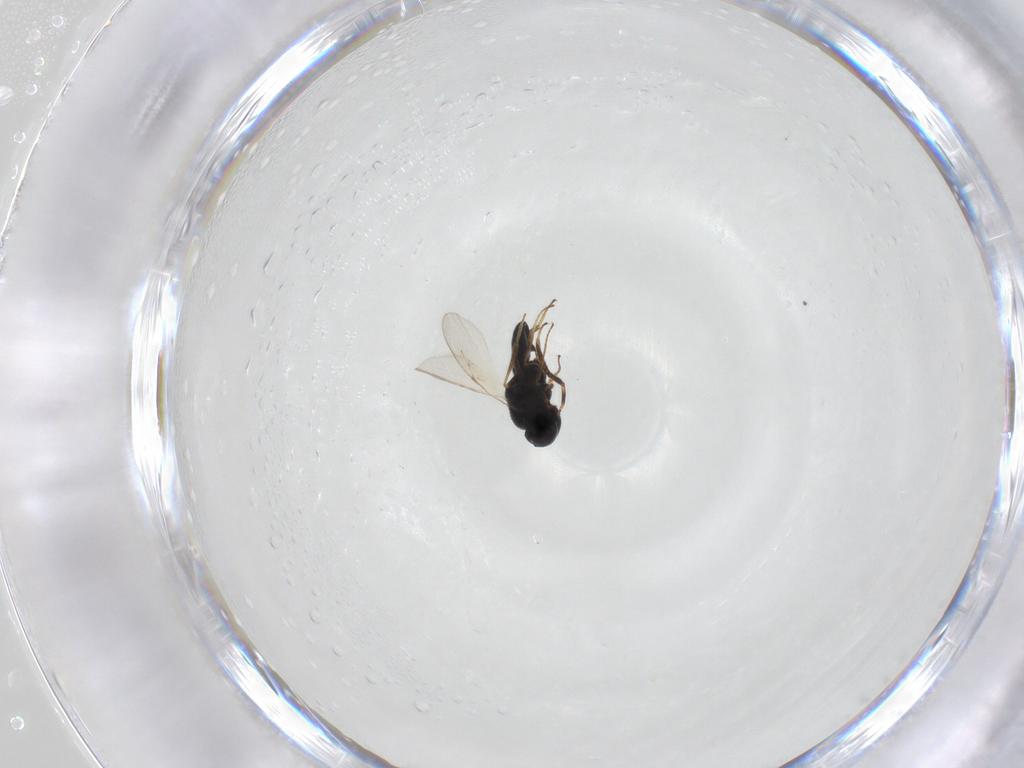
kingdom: Animalia
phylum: Arthropoda
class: Insecta
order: Hymenoptera
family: Scelionidae
